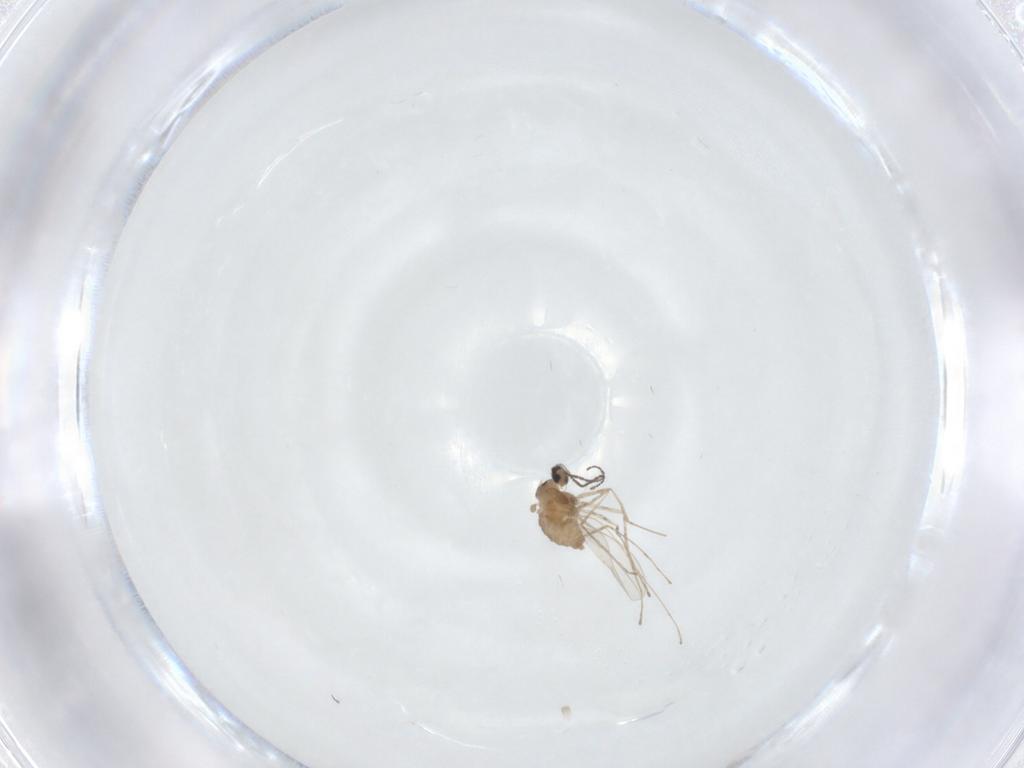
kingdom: Animalia
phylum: Arthropoda
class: Insecta
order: Diptera
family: Cecidomyiidae
